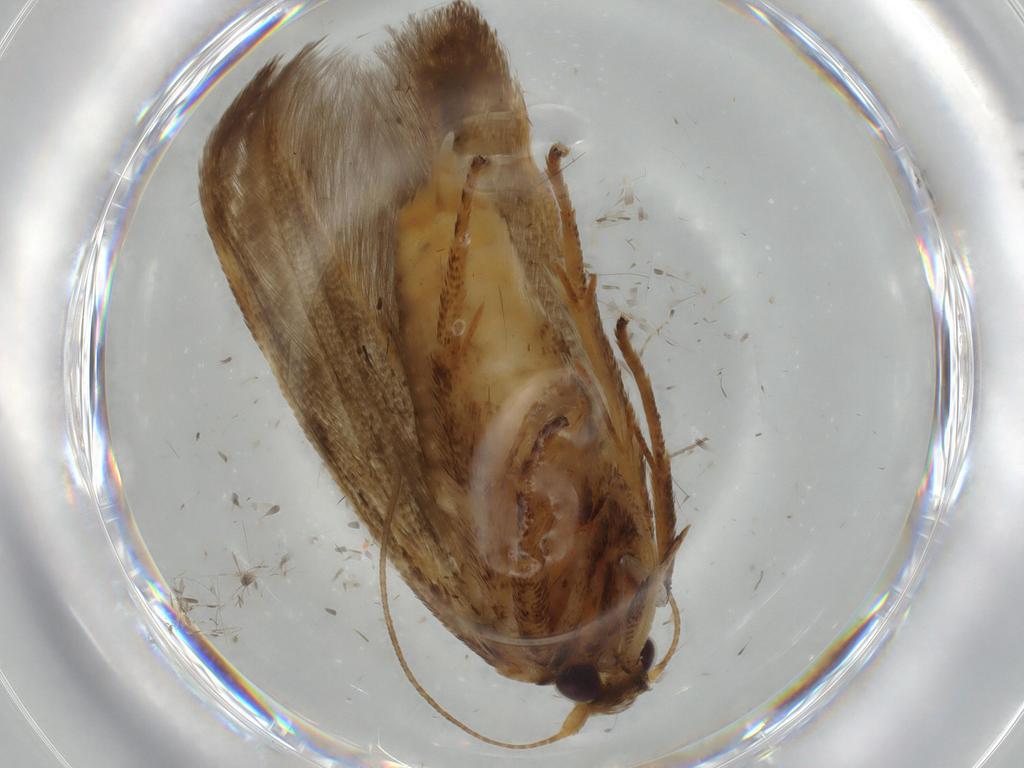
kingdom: Animalia
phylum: Arthropoda
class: Insecta
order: Lepidoptera
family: Coleophoridae
